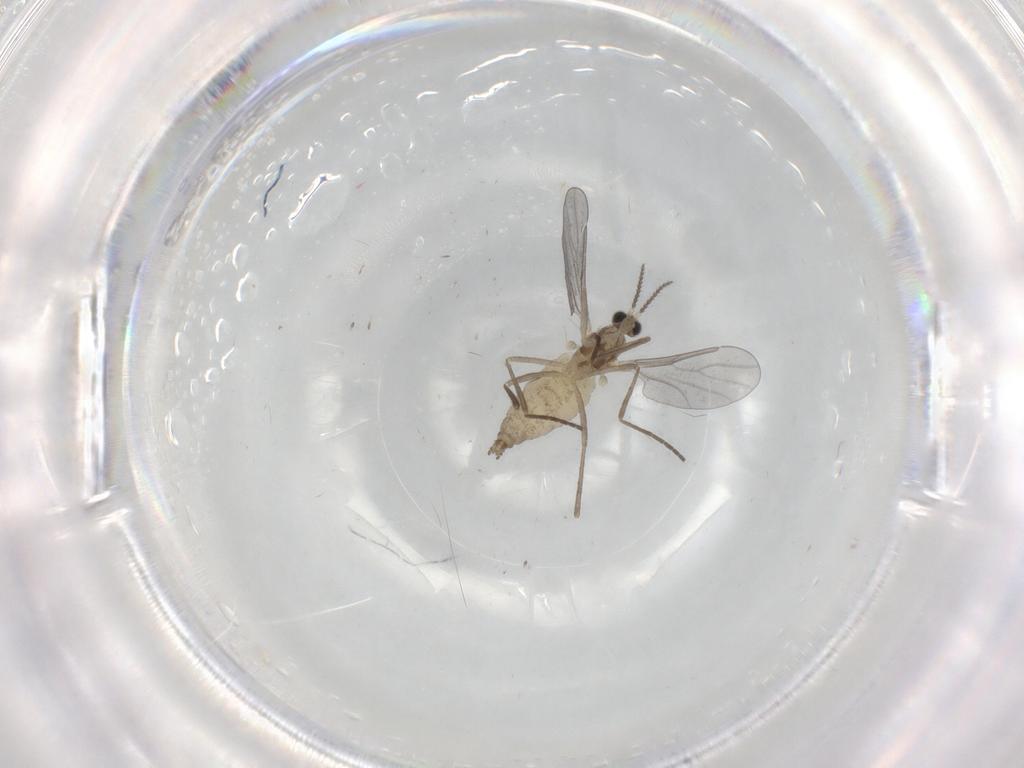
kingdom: Animalia
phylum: Arthropoda
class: Insecta
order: Diptera
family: Cecidomyiidae
